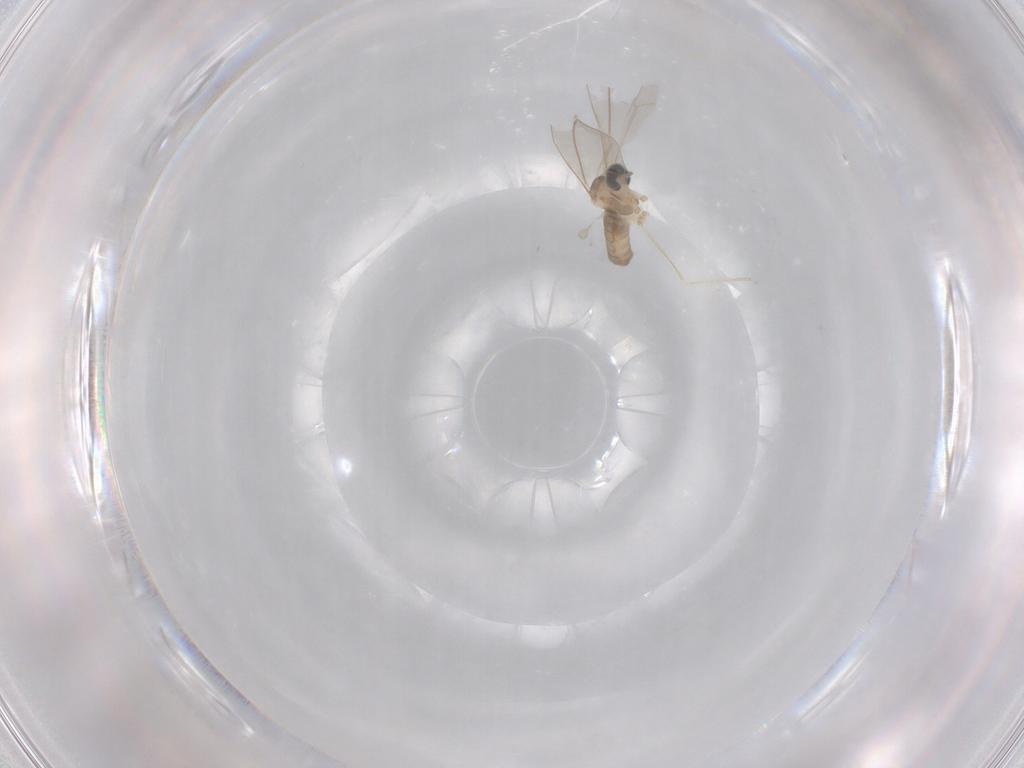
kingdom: Animalia
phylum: Arthropoda
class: Insecta
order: Diptera
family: Cecidomyiidae
